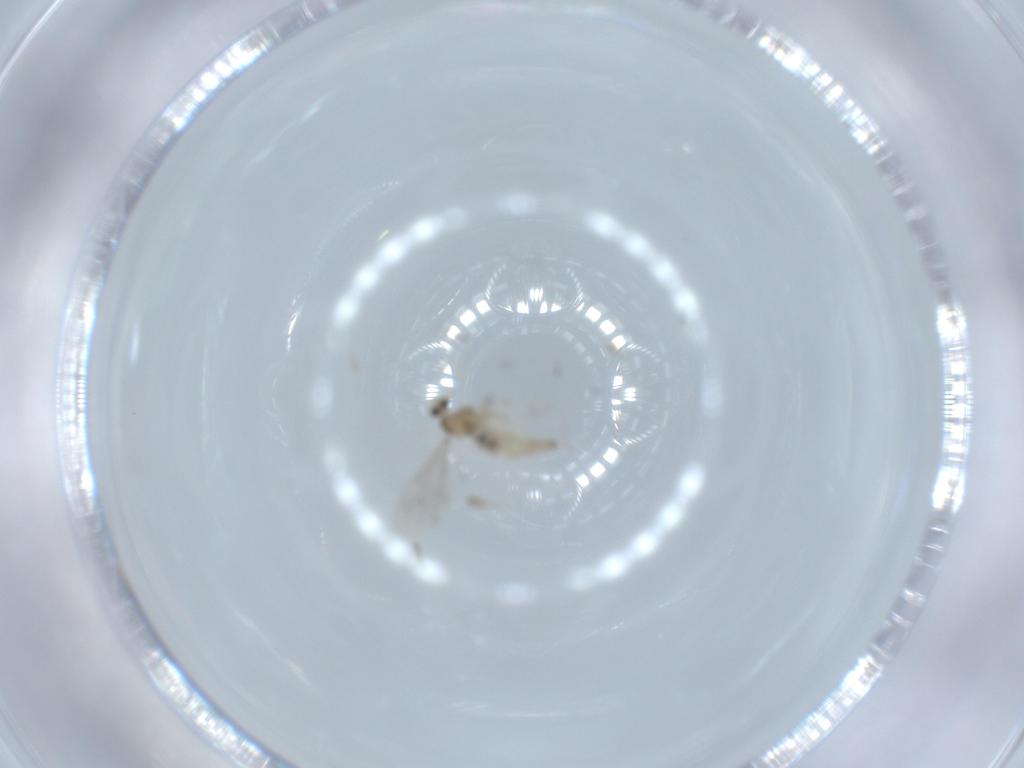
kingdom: Animalia
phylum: Arthropoda
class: Insecta
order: Diptera
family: Cecidomyiidae
